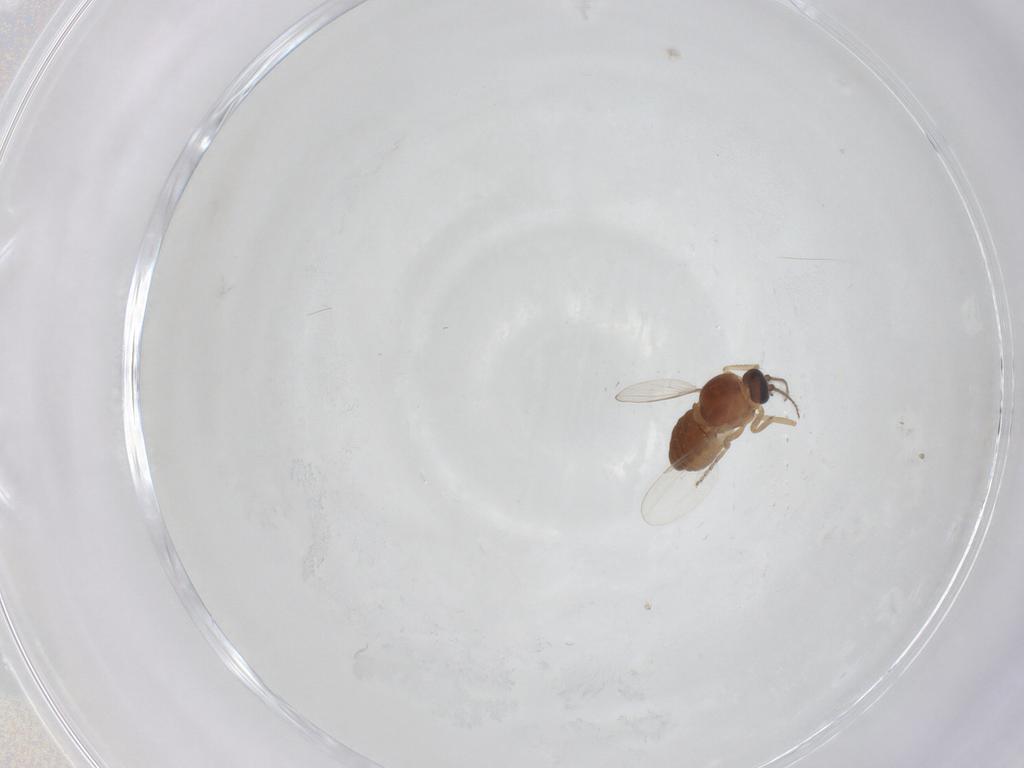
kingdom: Animalia
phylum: Arthropoda
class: Insecta
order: Diptera
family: Ceratopogonidae
